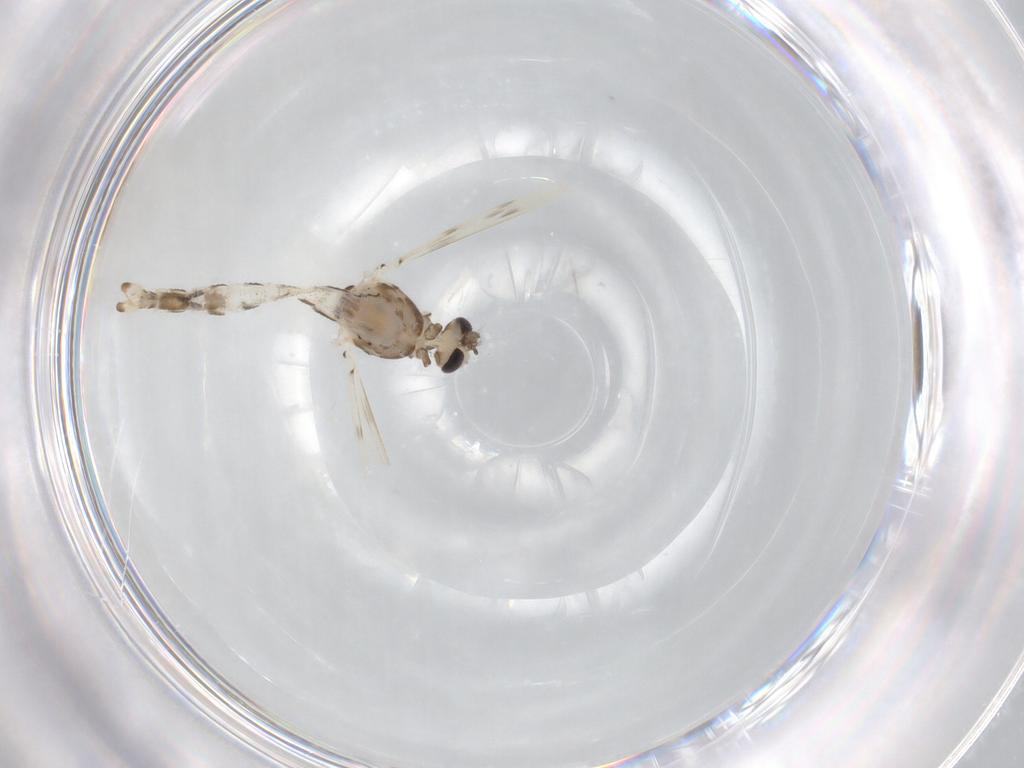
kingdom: Animalia
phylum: Arthropoda
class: Insecta
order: Diptera
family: Corethrellidae
